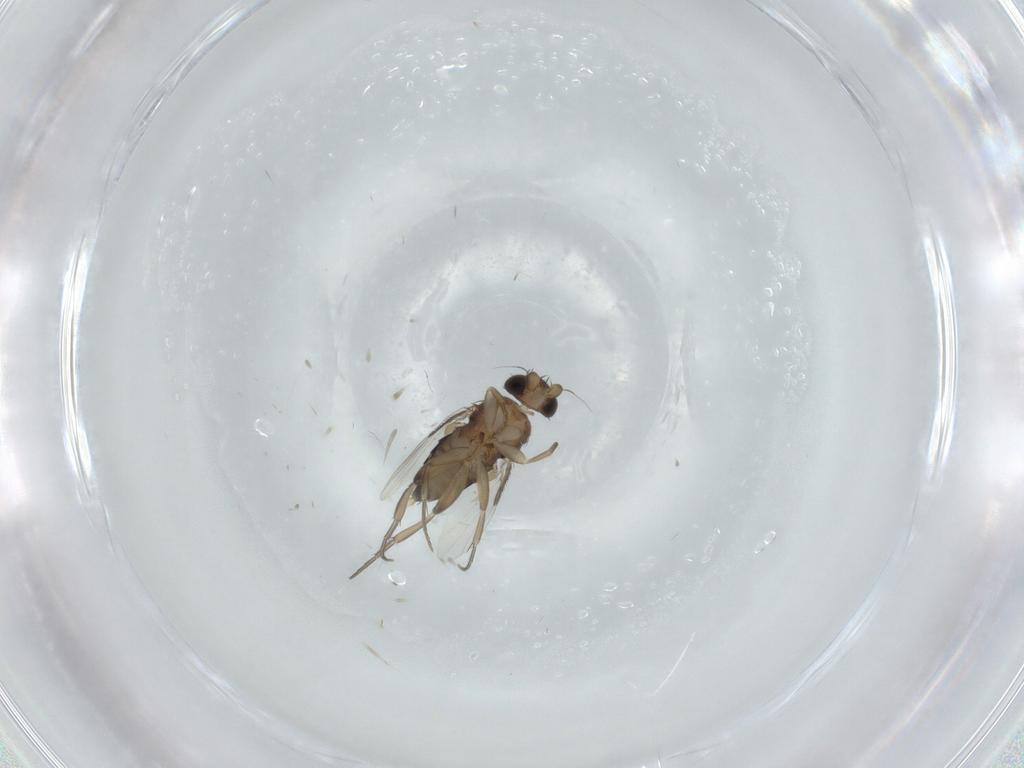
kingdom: Animalia
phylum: Arthropoda
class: Insecta
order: Diptera
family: Phoridae
